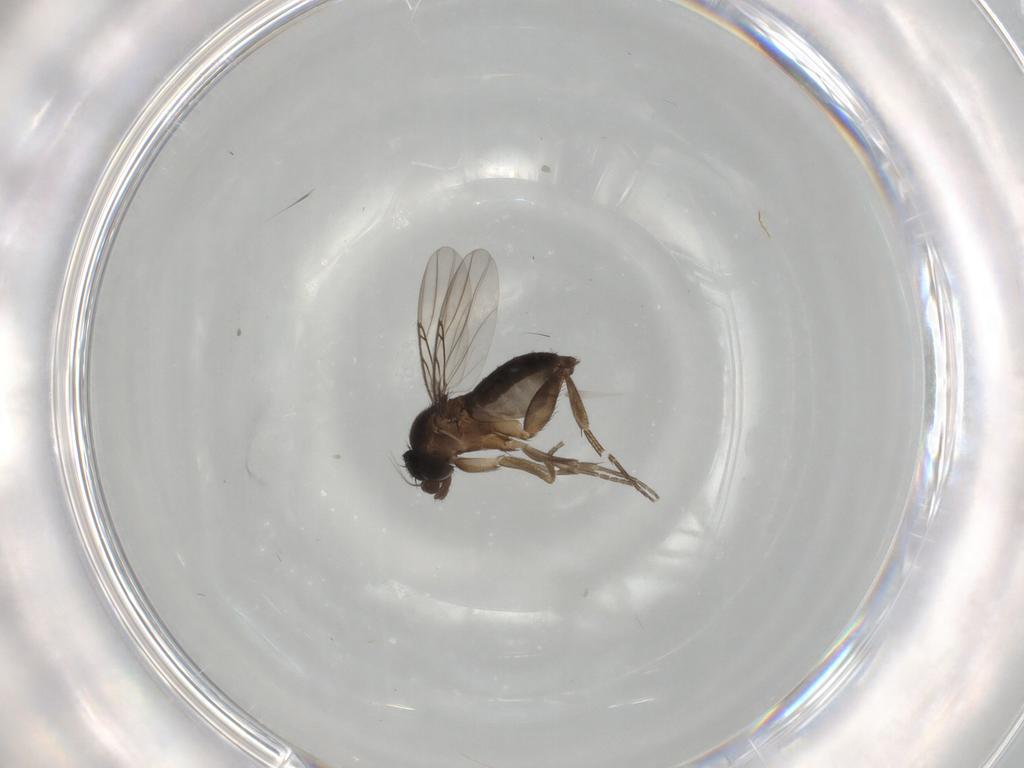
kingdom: Animalia
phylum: Arthropoda
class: Insecta
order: Diptera
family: Phoridae
